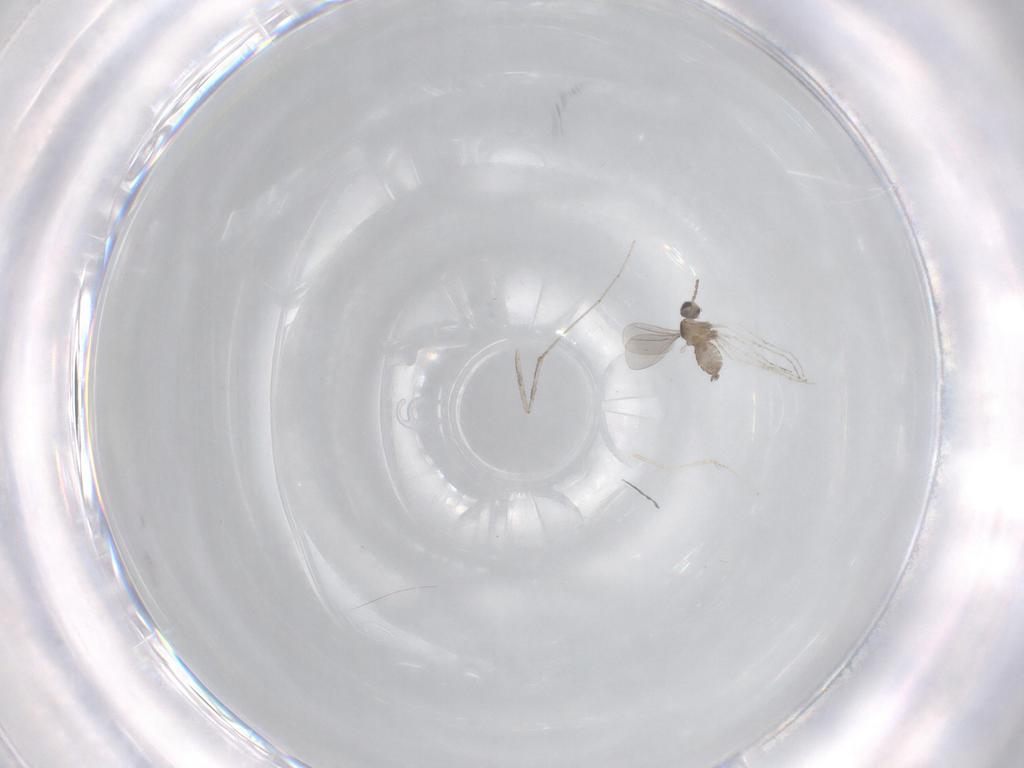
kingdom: Animalia
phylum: Arthropoda
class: Insecta
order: Diptera
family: Cecidomyiidae
